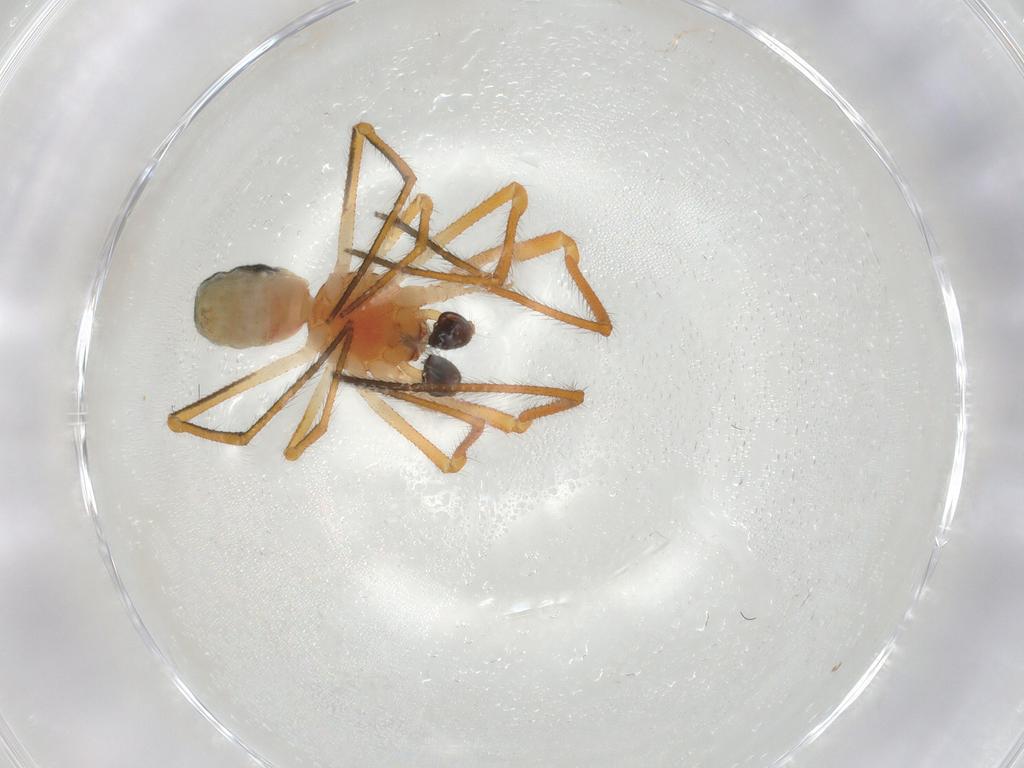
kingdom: Animalia
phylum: Arthropoda
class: Arachnida
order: Araneae
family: Theridiidae
